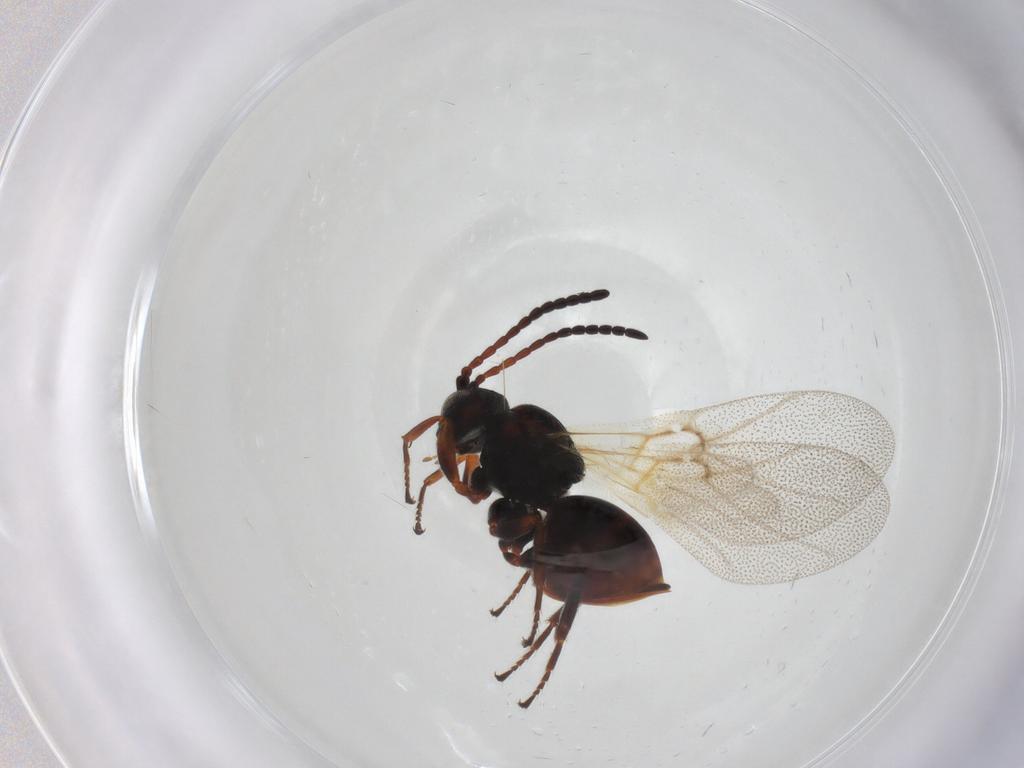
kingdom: Animalia
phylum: Arthropoda
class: Insecta
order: Hymenoptera
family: Cynipidae
